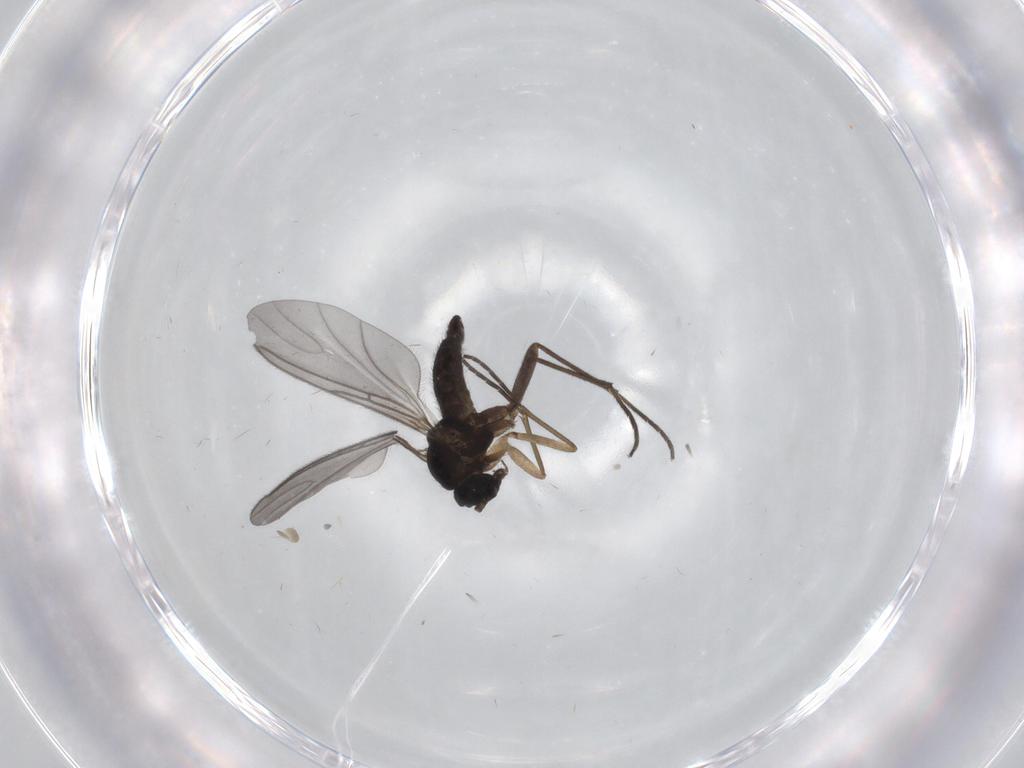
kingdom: Animalia
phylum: Arthropoda
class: Insecta
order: Diptera
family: Sciaridae
